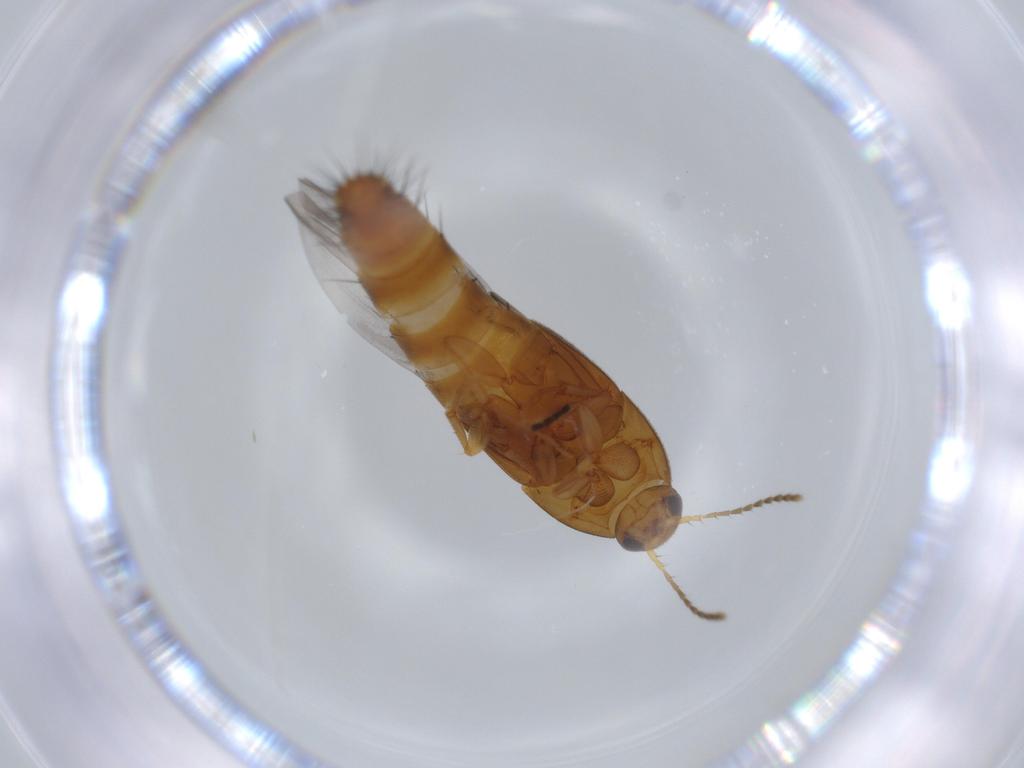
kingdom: Animalia
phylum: Arthropoda
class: Insecta
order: Coleoptera
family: Staphylinidae
